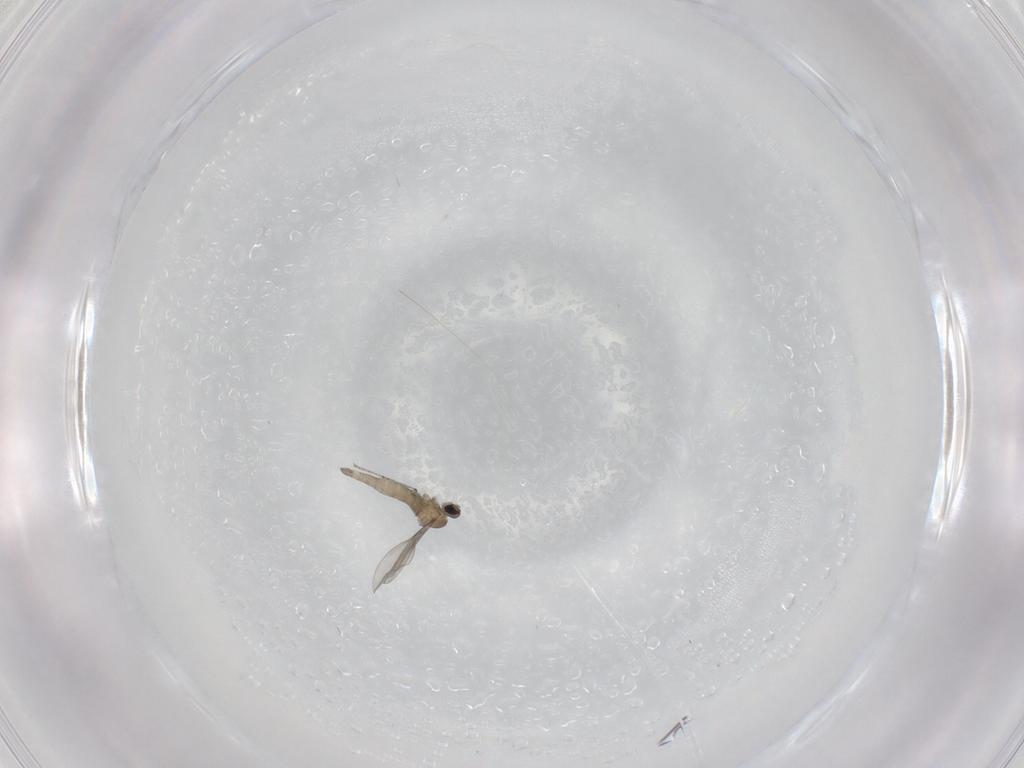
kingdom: Animalia
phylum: Arthropoda
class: Insecta
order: Diptera
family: Cecidomyiidae
